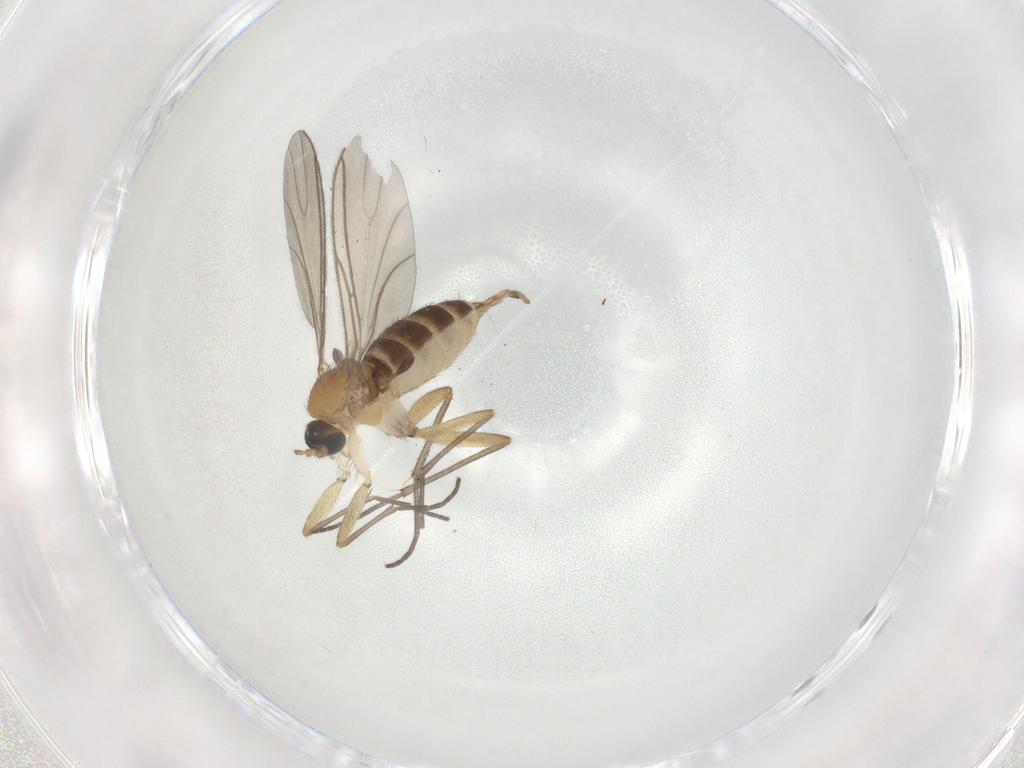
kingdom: Animalia
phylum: Arthropoda
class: Insecta
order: Diptera
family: Sciaridae
